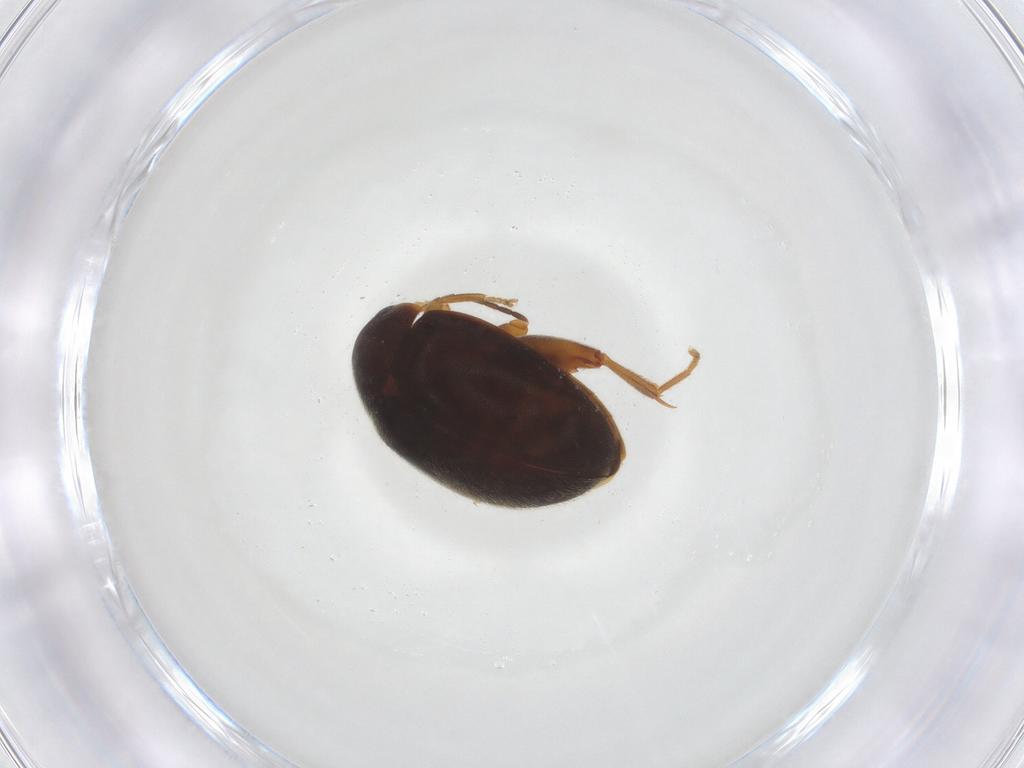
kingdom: Animalia
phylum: Arthropoda
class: Insecta
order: Coleoptera
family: Scirtidae
